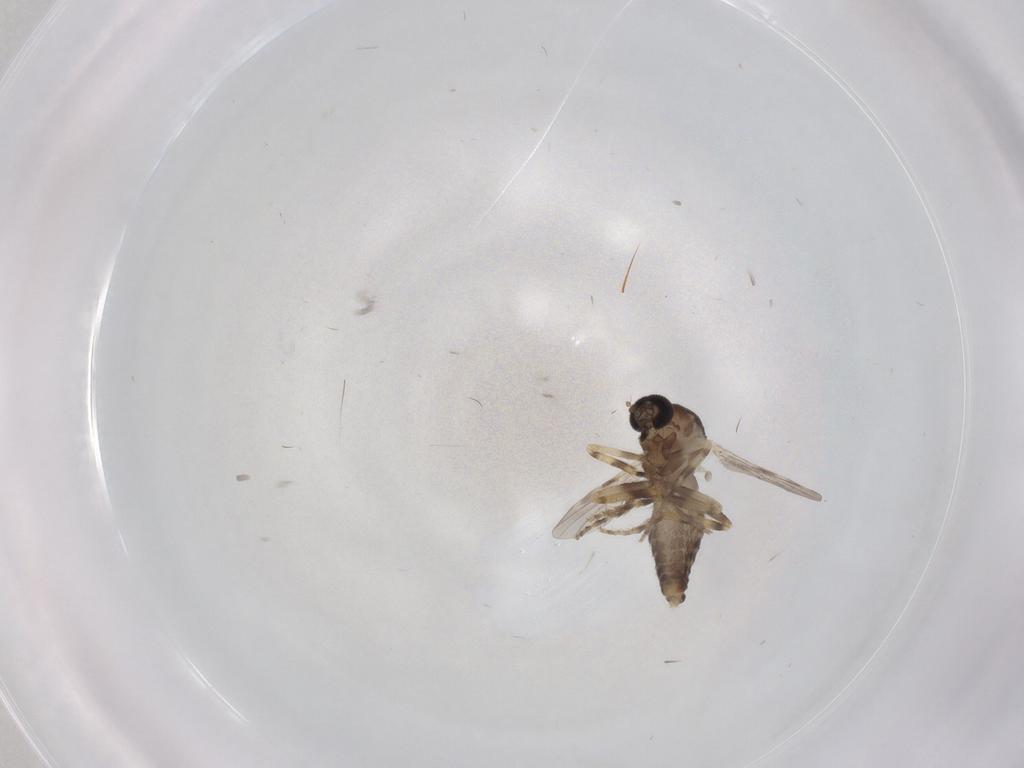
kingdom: Animalia
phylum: Arthropoda
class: Insecta
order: Diptera
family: Ceratopogonidae
